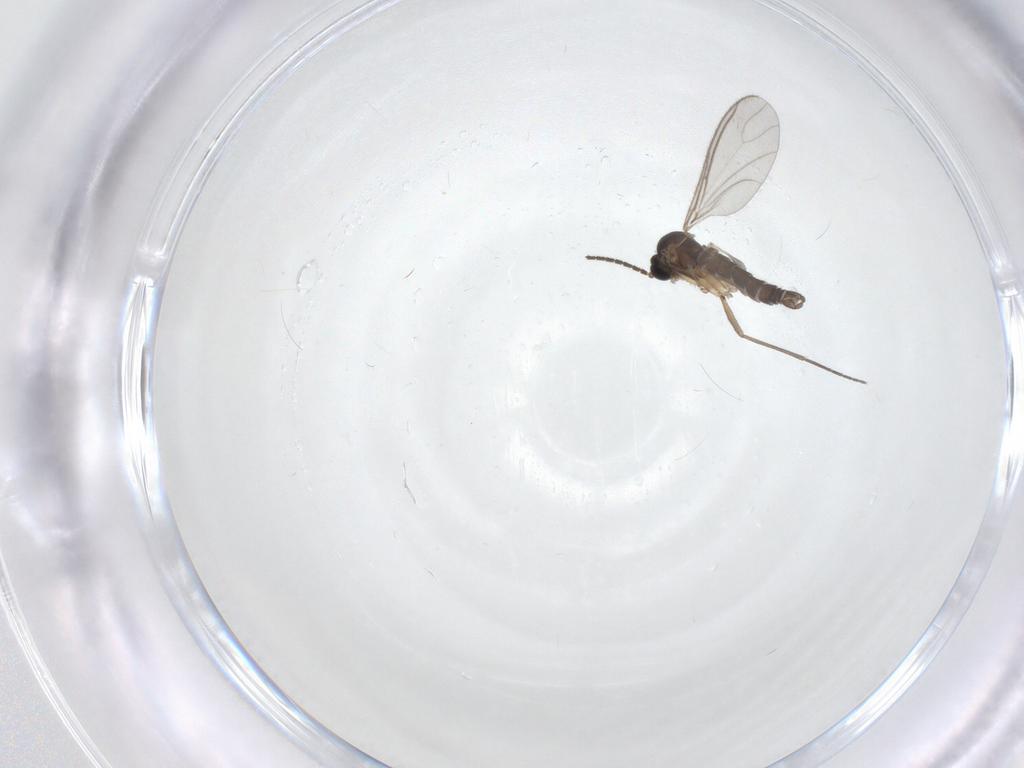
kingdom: Animalia
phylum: Arthropoda
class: Insecta
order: Diptera
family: Sciaridae
